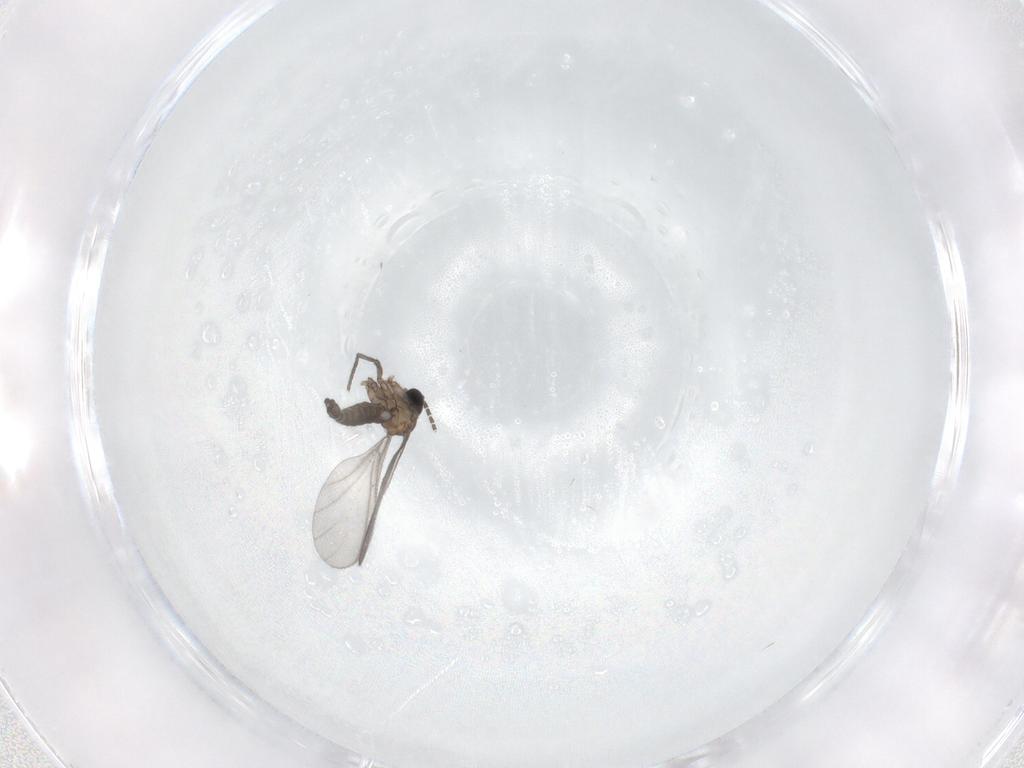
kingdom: Animalia
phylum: Arthropoda
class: Insecta
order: Diptera
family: Sciaridae
